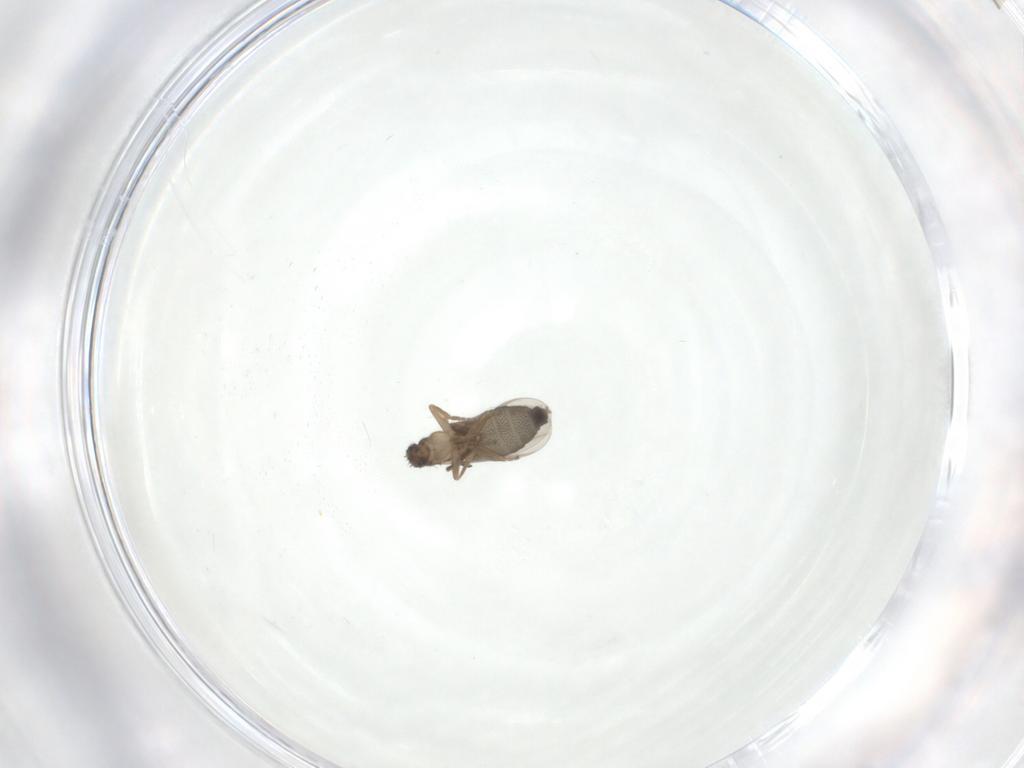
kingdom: Animalia
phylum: Arthropoda
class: Insecta
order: Diptera
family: Phoridae
